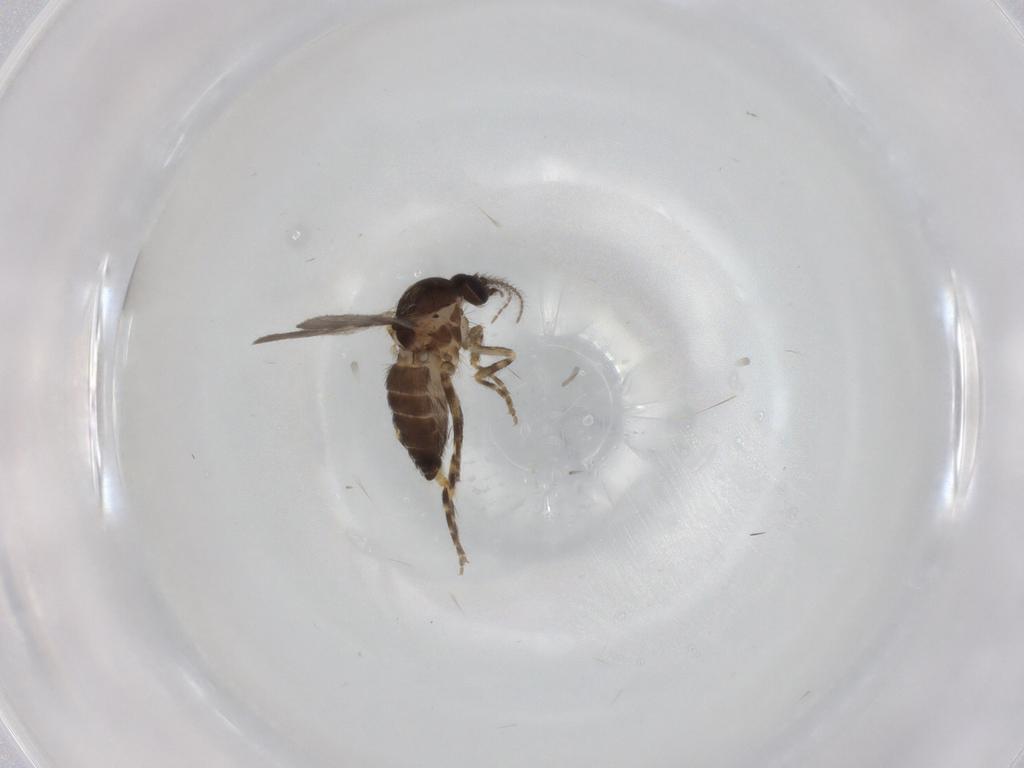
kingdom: Animalia
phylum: Arthropoda
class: Insecta
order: Diptera
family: Ceratopogonidae
